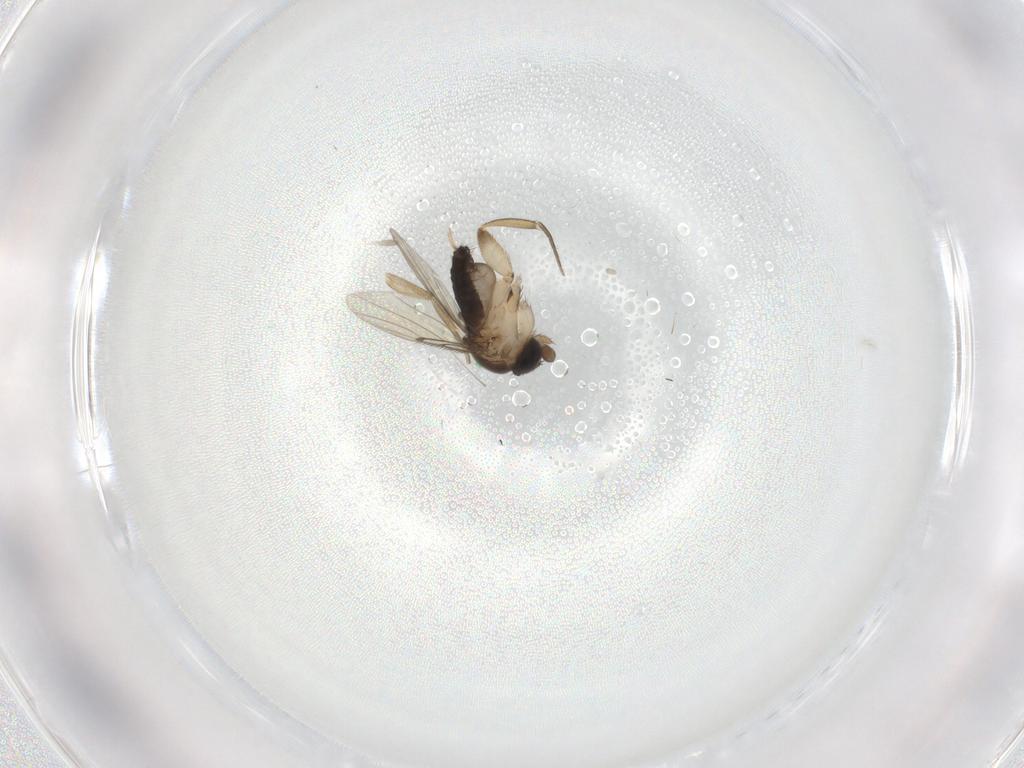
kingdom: Animalia
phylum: Arthropoda
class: Insecta
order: Diptera
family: Phoridae
